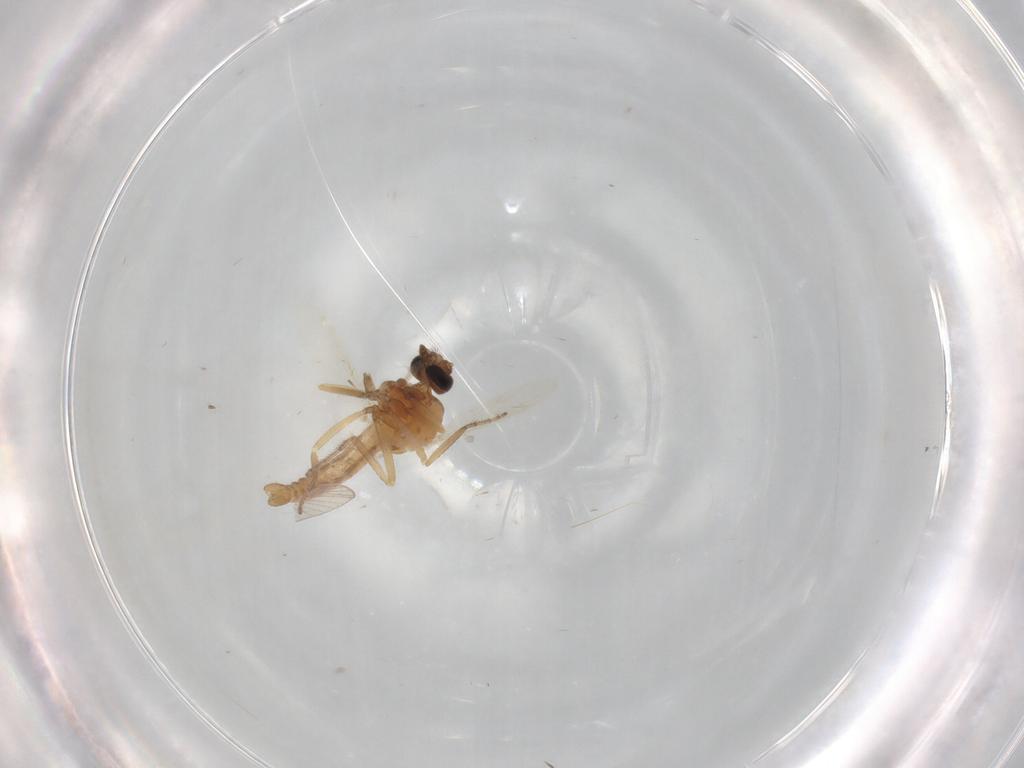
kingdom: Animalia
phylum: Arthropoda
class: Insecta
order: Diptera
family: Ceratopogonidae
